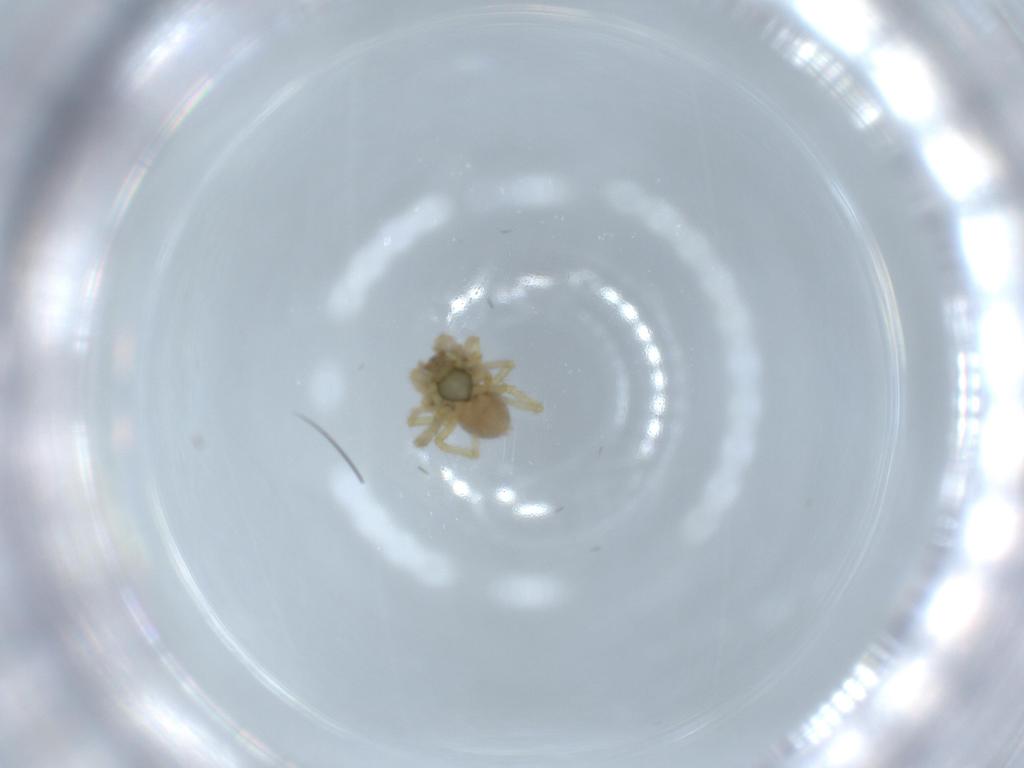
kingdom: Animalia
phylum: Arthropoda
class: Arachnida
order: Araneae
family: Linyphiidae
